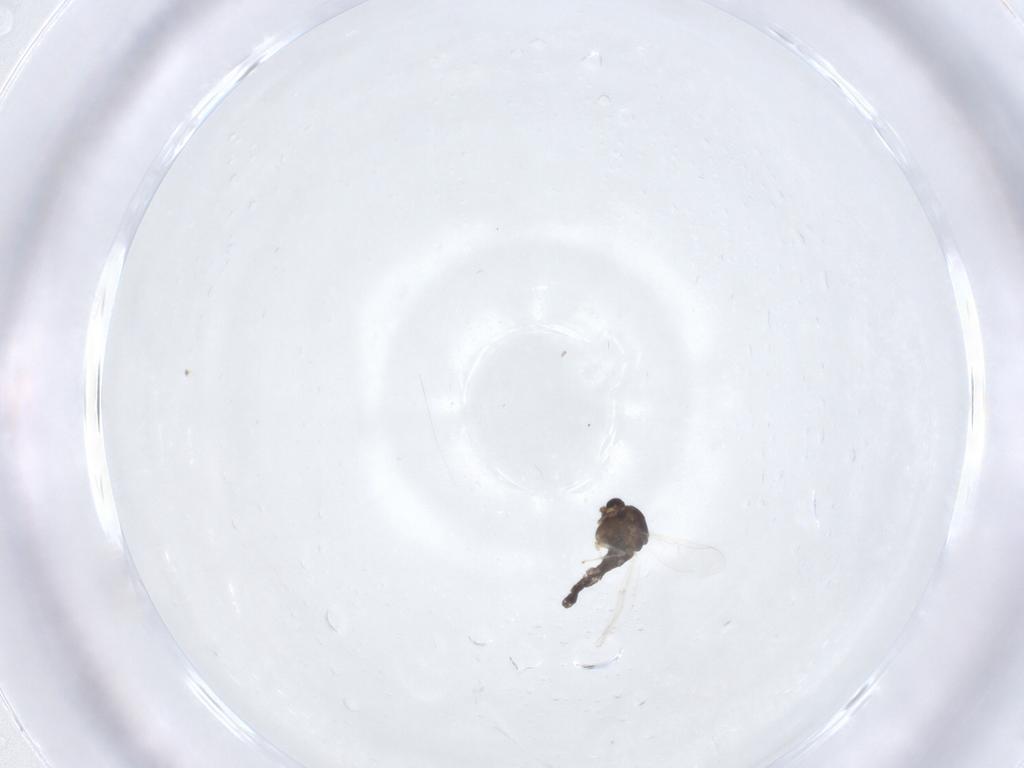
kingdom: Animalia
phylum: Arthropoda
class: Insecta
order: Diptera
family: Chironomidae
